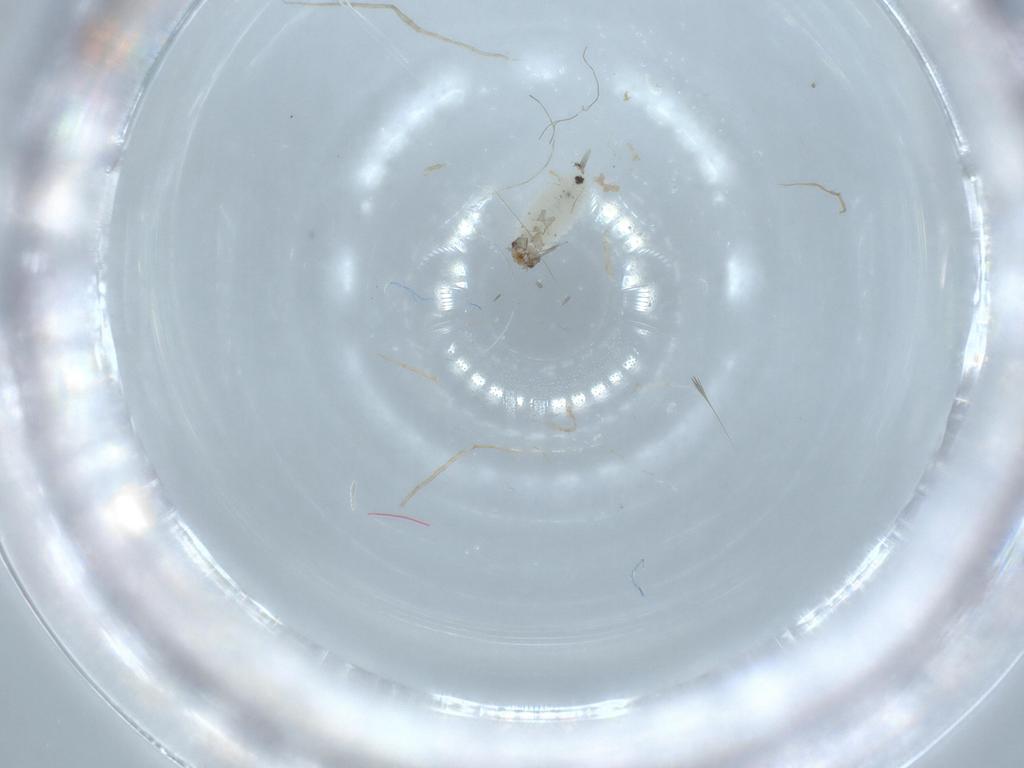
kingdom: Animalia
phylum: Arthropoda
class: Insecta
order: Coleoptera
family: Latridiidae
